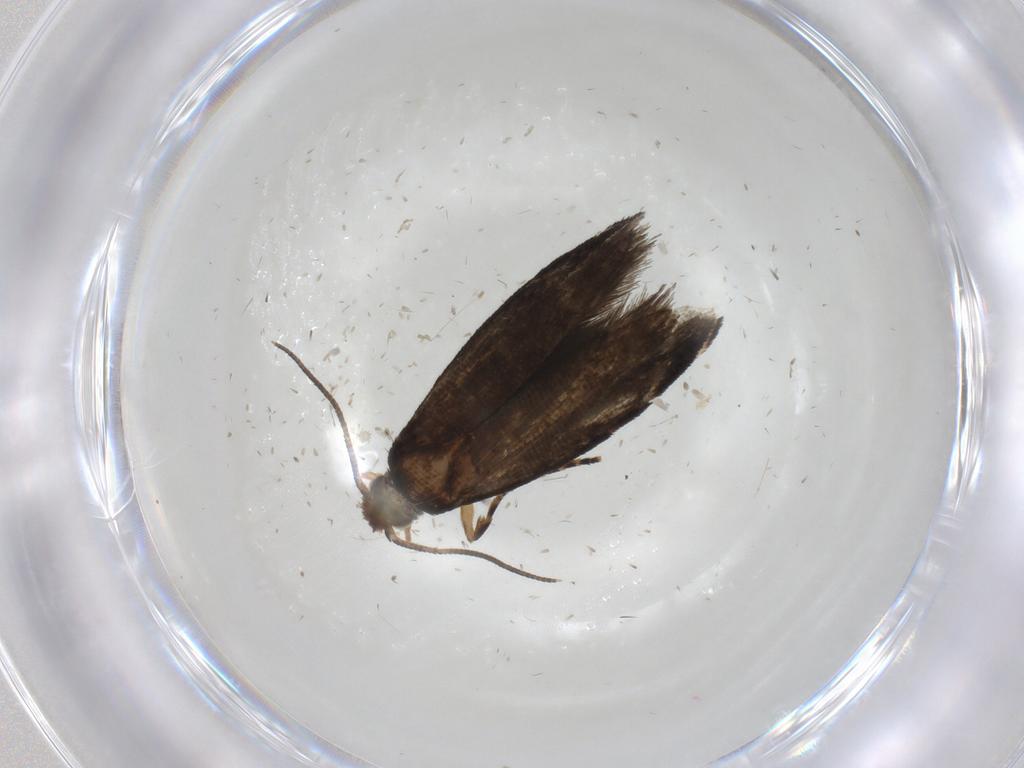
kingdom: Animalia
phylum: Arthropoda
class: Insecta
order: Lepidoptera
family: Tineidae
